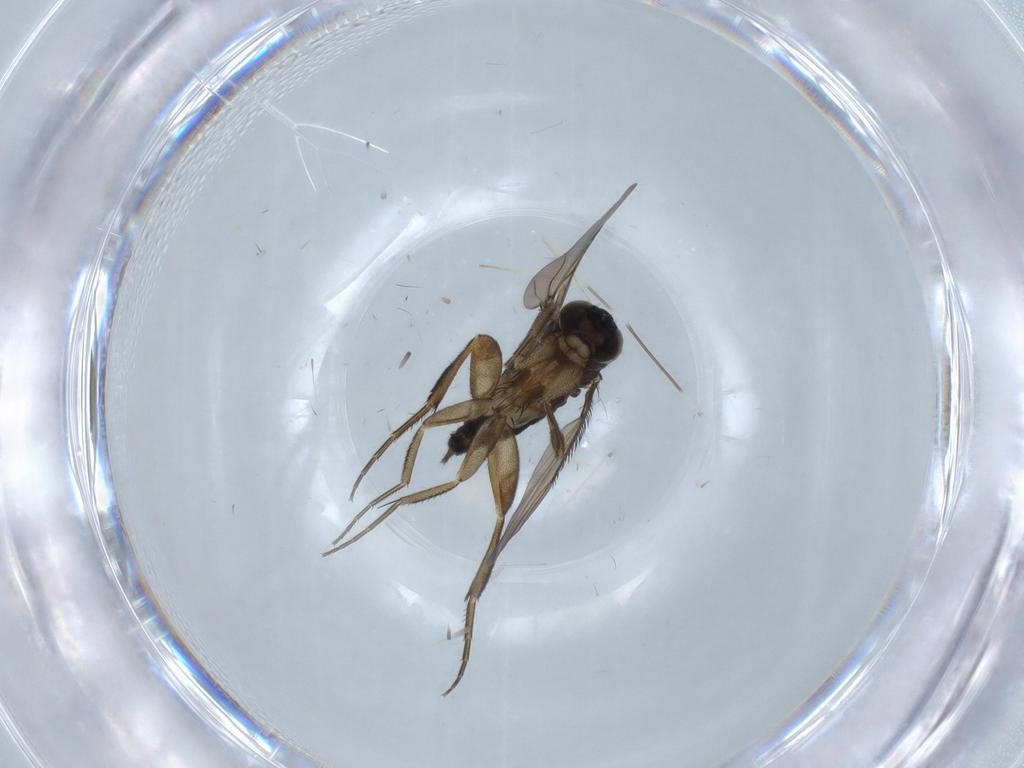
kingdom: Animalia
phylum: Arthropoda
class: Insecta
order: Diptera
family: Phoridae
